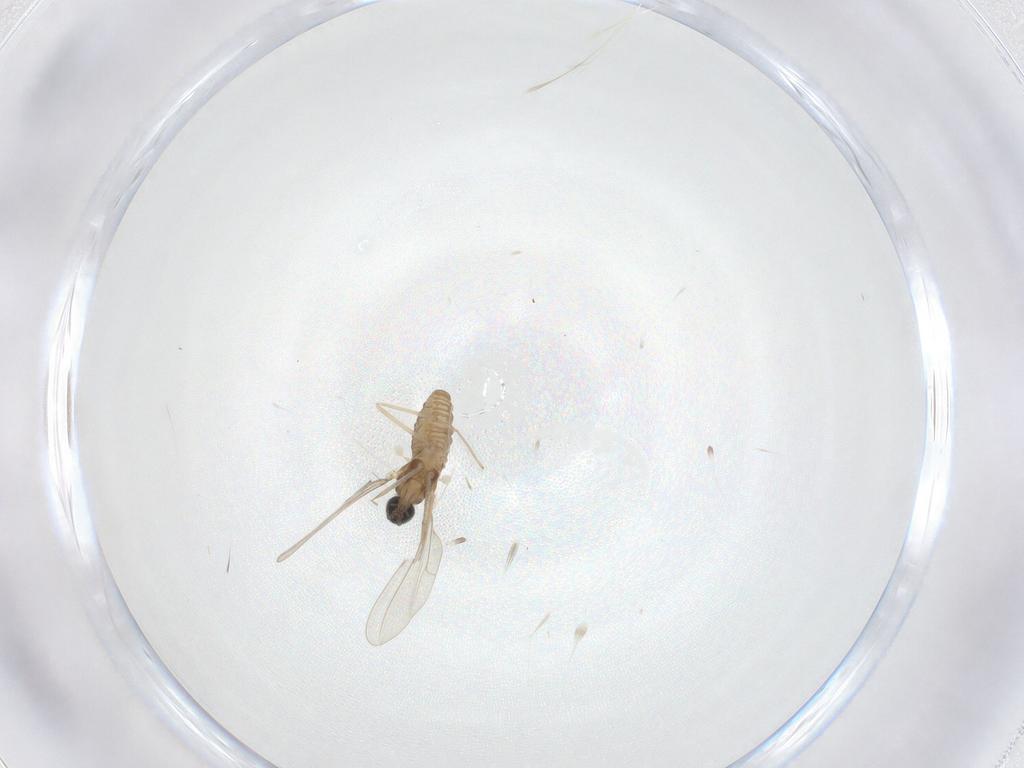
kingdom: Animalia
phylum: Arthropoda
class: Insecta
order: Diptera
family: Cecidomyiidae
